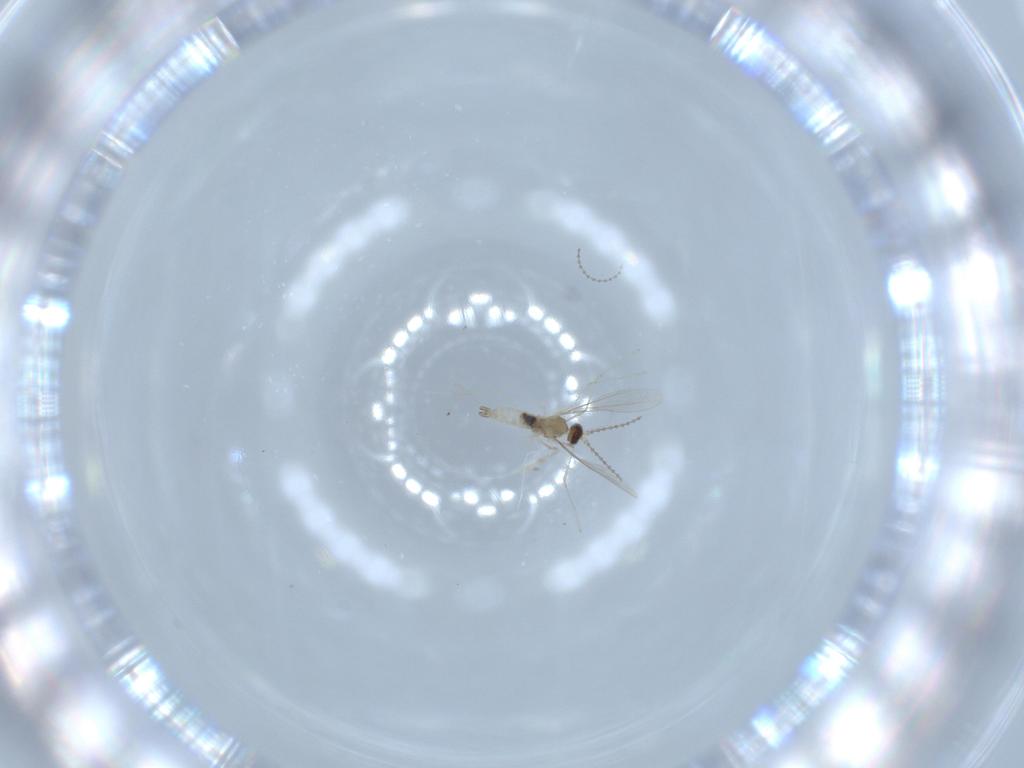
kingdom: Animalia
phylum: Arthropoda
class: Insecta
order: Diptera
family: Cecidomyiidae
